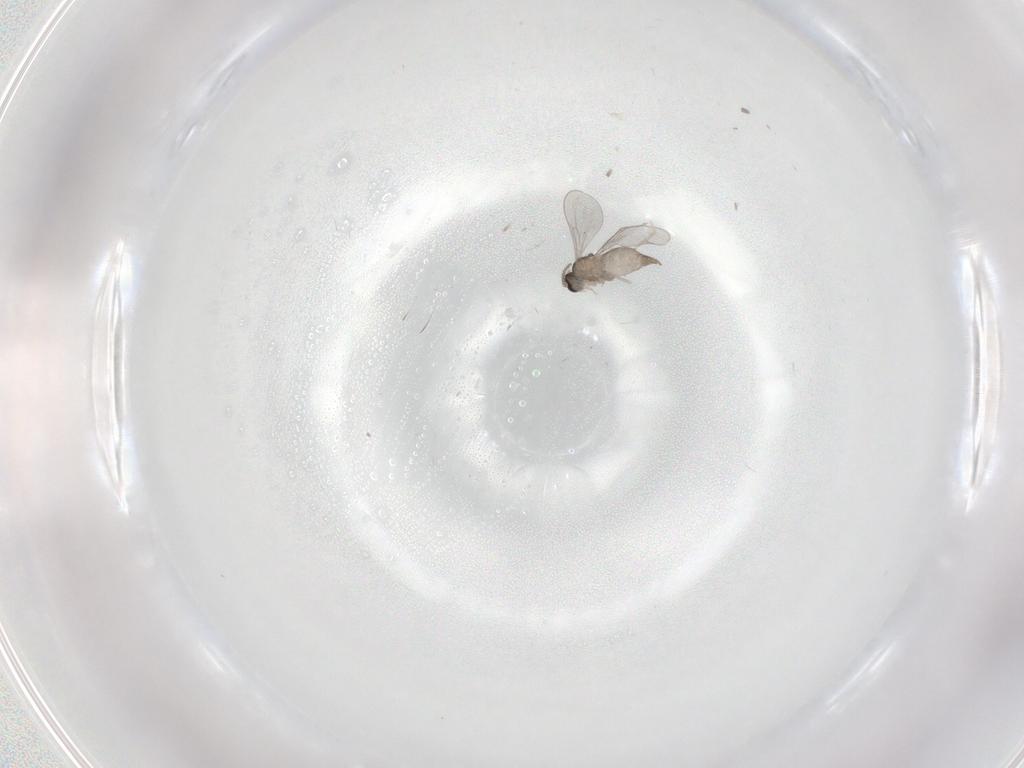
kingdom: Animalia
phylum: Arthropoda
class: Insecta
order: Diptera
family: Cecidomyiidae
